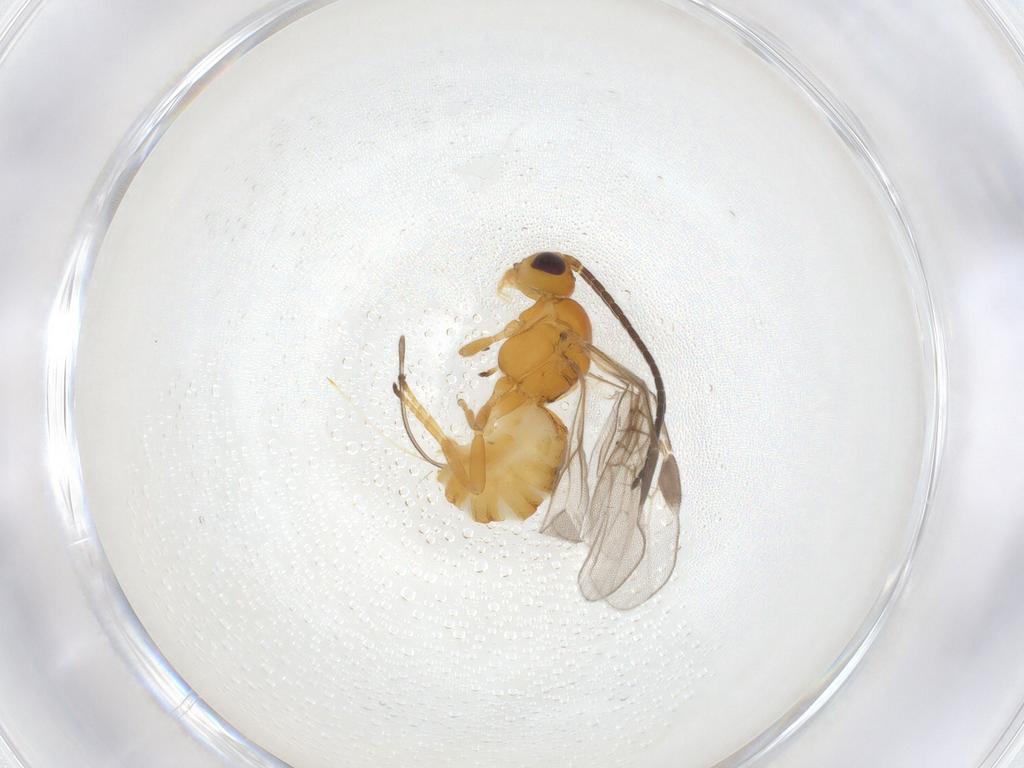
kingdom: Animalia
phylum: Arthropoda
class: Insecta
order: Hymenoptera
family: Braconidae
